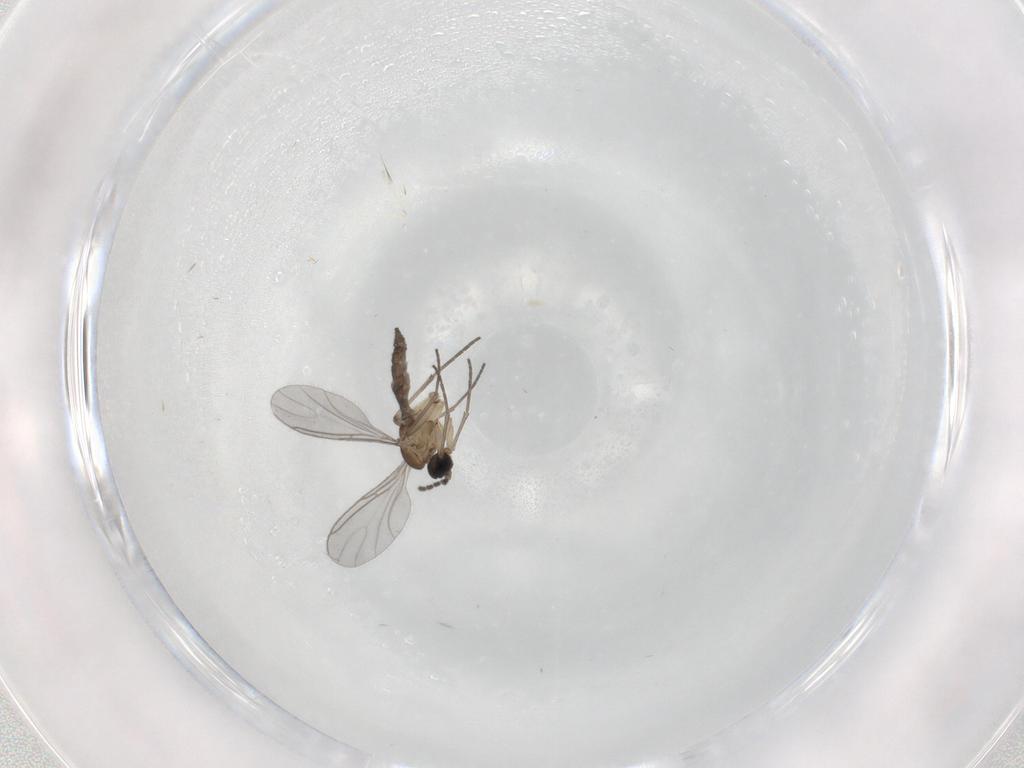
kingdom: Animalia
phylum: Arthropoda
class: Insecta
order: Diptera
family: Sciaridae
